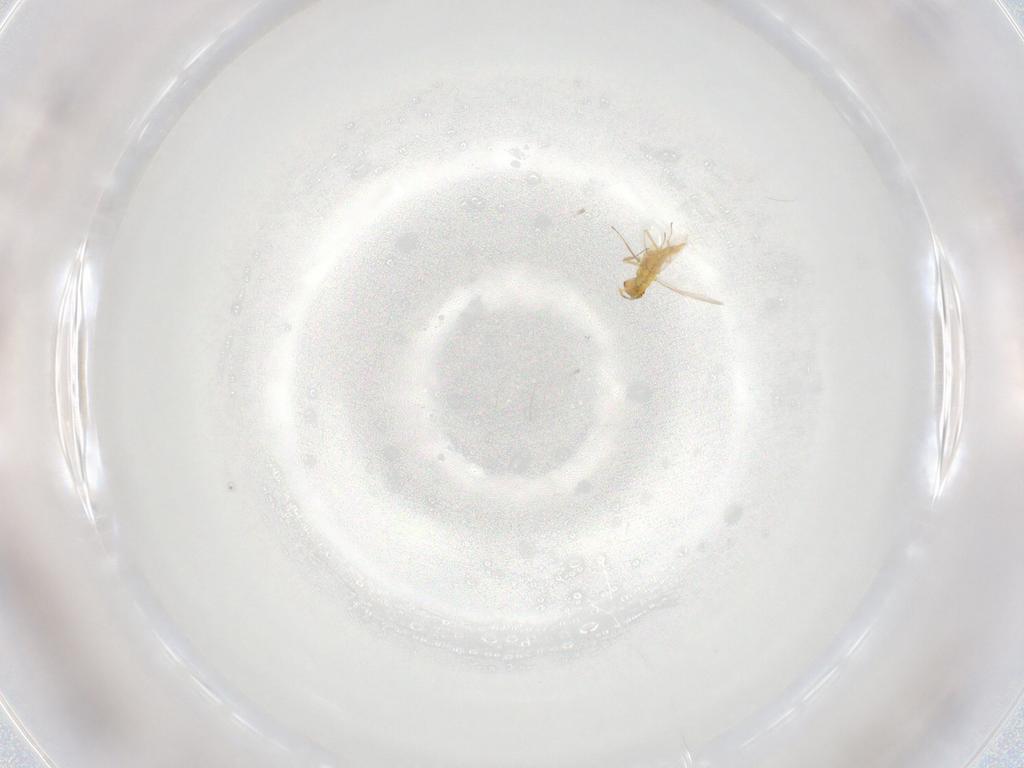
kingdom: Animalia
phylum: Arthropoda
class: Insecta
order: Hymenoptera
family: Aphelinidae
